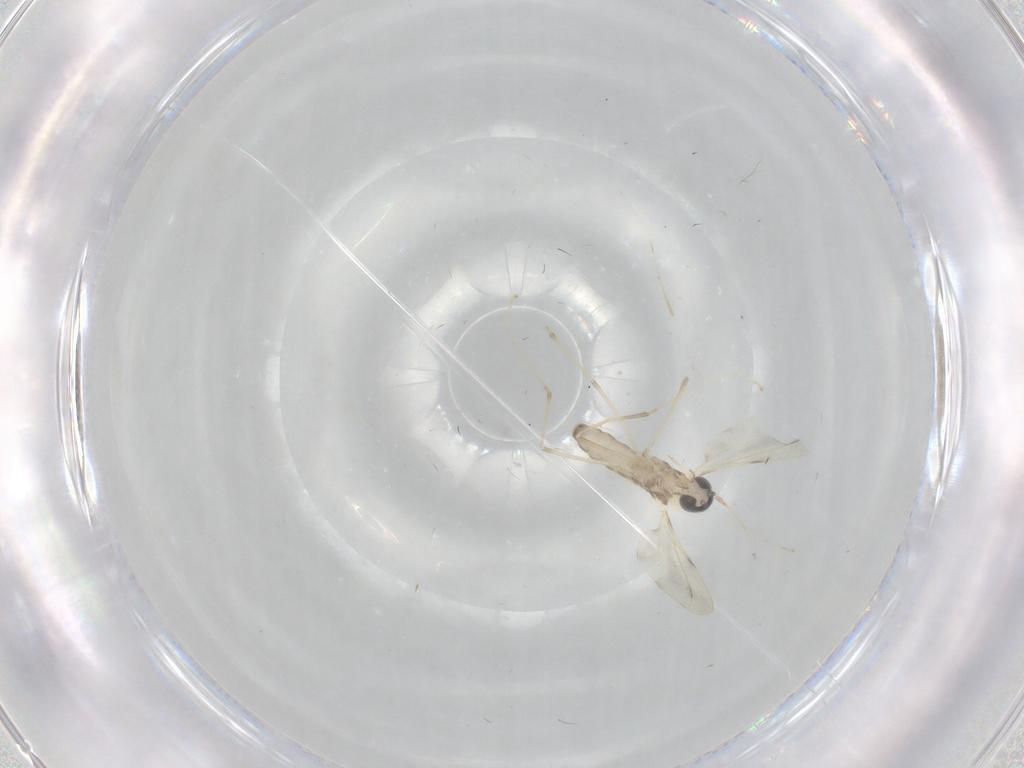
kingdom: Animalia
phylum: Arthropoda
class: Insecta
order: Diptera
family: Cecidomyiidae
